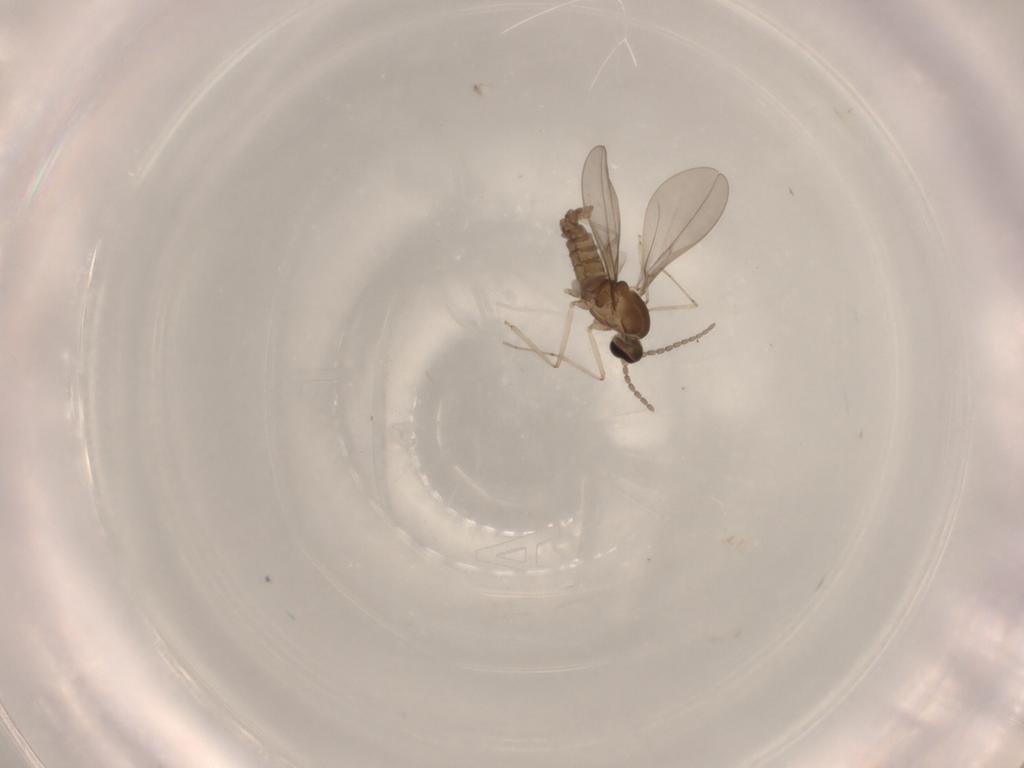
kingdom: Animalia
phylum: Arthropoda
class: Insecta
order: Diptera
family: Cecidomyiidae
